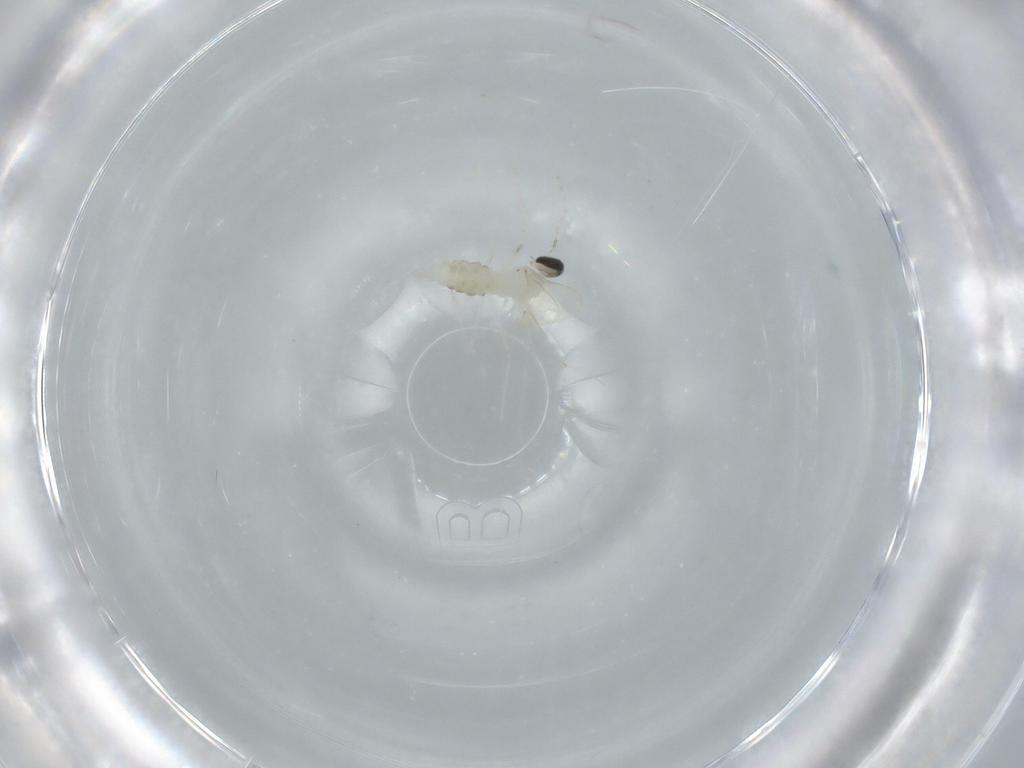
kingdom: Animalia
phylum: Arthropoda
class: Insecta
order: Diptera
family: Cecidomyiidae
